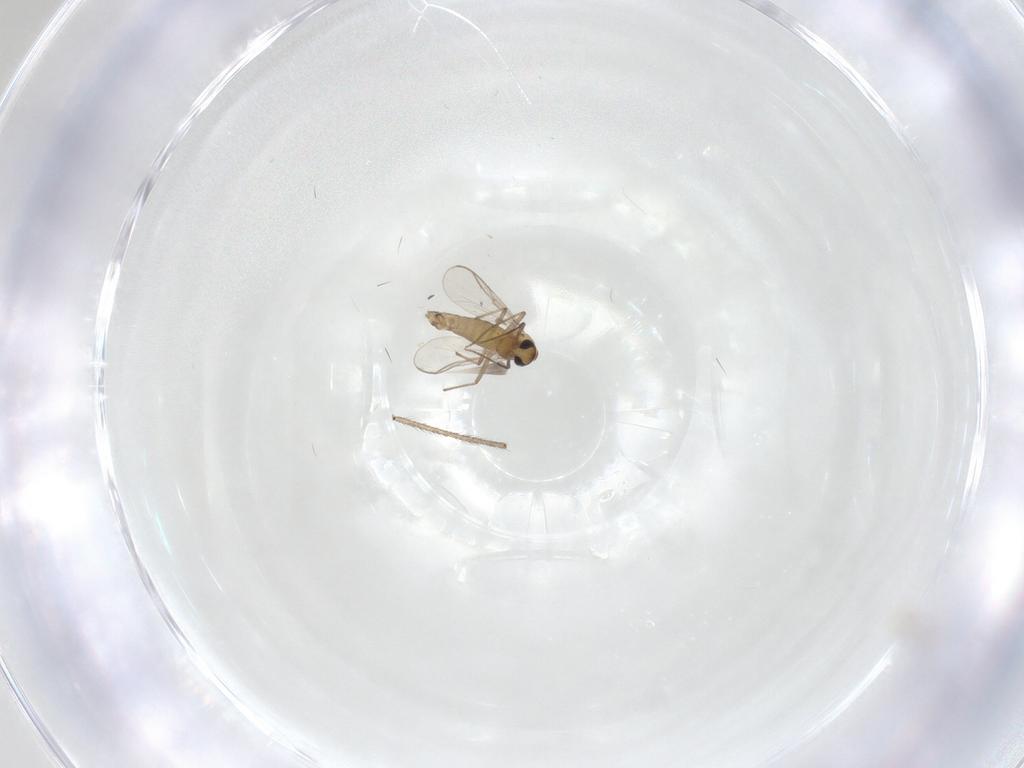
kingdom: Animalia
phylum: Arthropoda
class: Insecta
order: Diptera
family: Chironomidae
